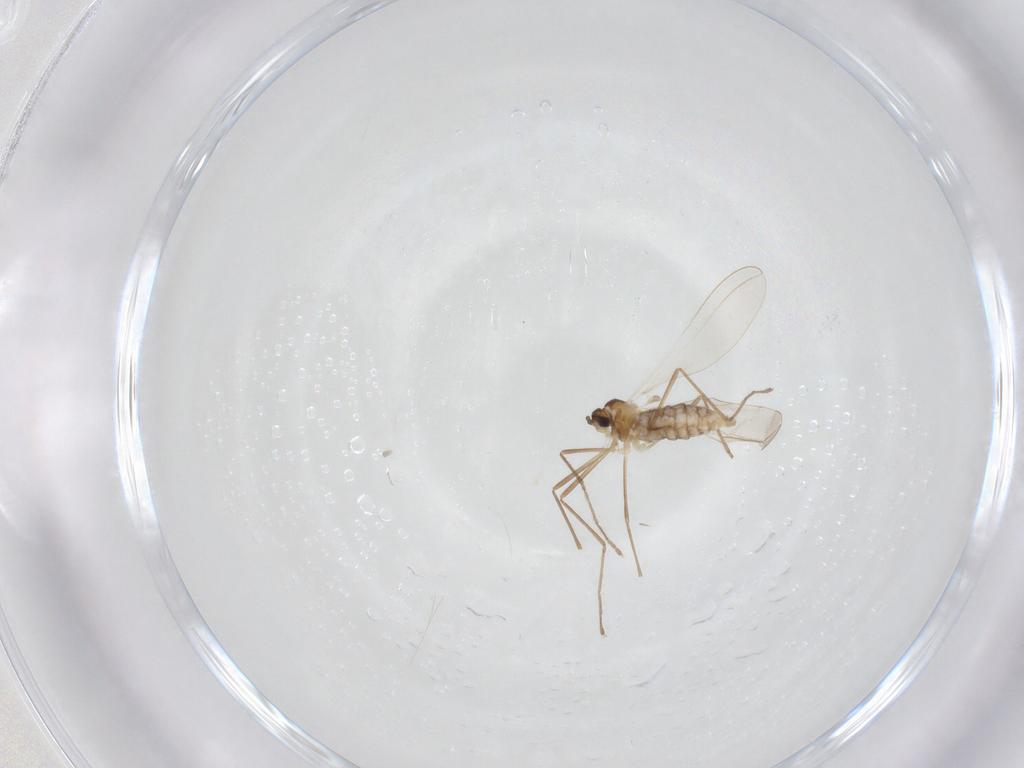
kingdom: Animalia
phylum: Arthropoda
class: Insecta
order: Diptera
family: Cecidomyiidae
